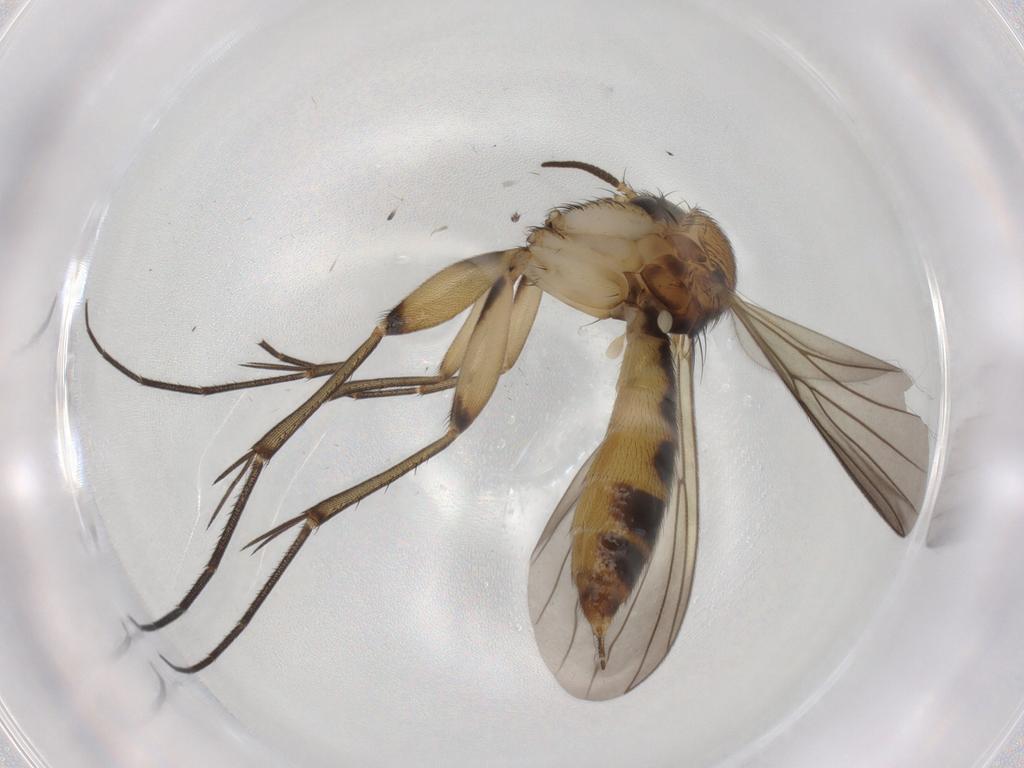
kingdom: Animalia
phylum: Arthropoda
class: Insecta
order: Diptera
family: Mycetophilidae
